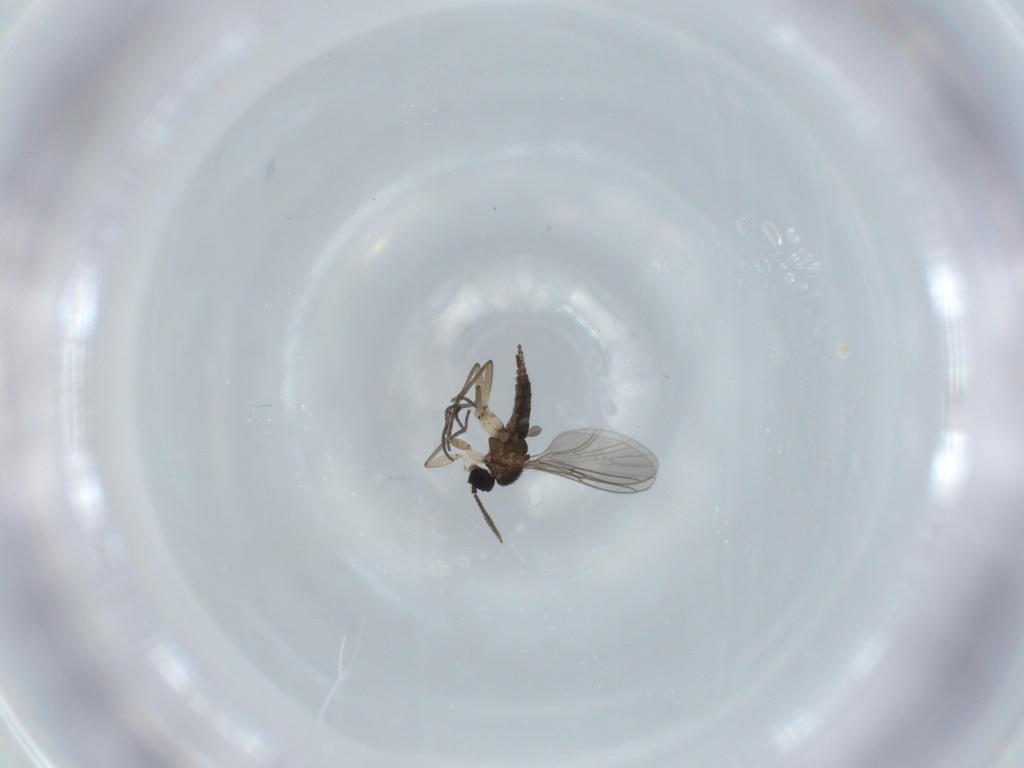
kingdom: Animalia
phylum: Arthropoda
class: Insecta
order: Diptera
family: Sciaridae
